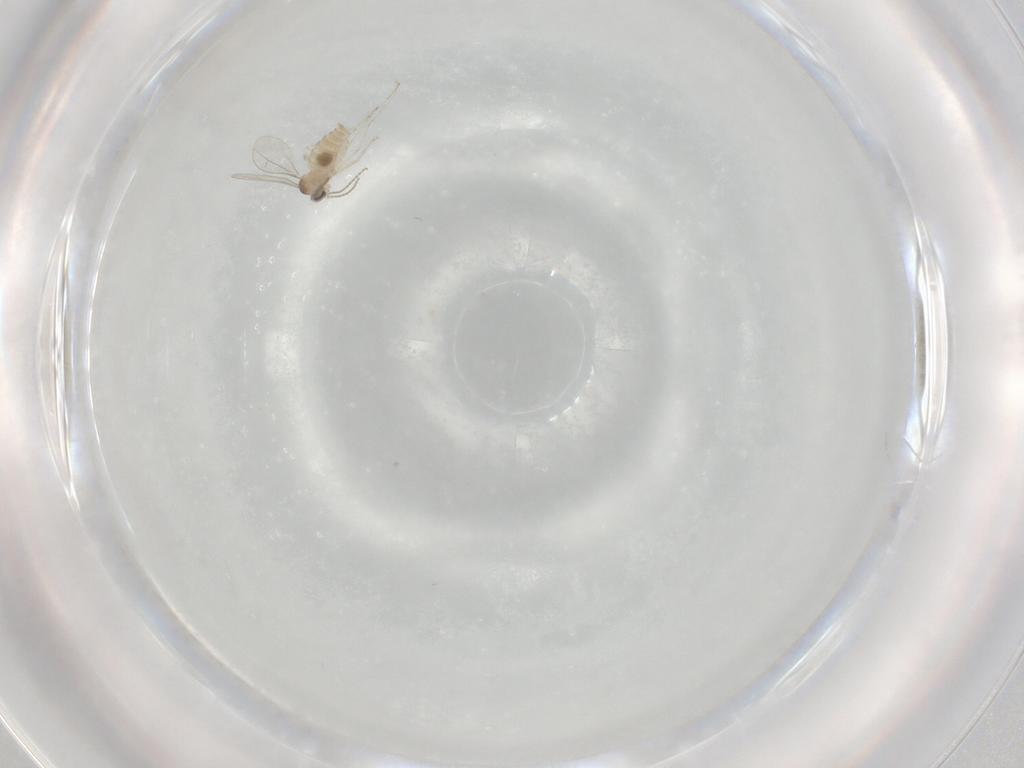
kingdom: Animalia
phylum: Arthropoda
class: Insecta
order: Diptera
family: Cecidomyiidae
